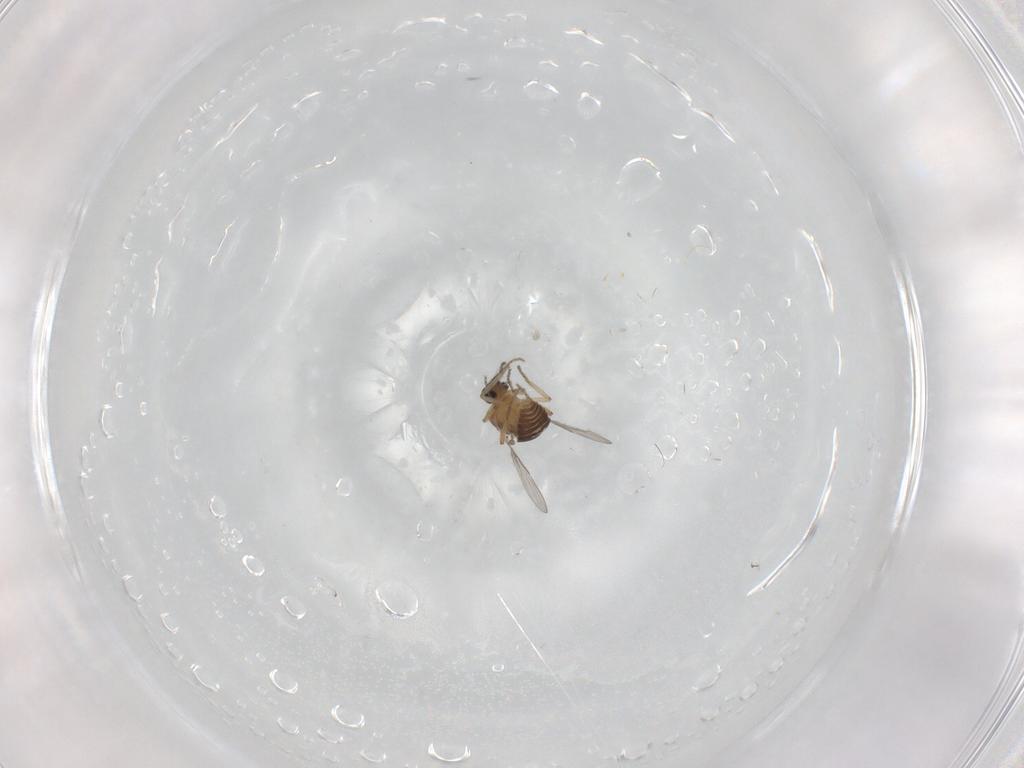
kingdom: Animalia
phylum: Arthropoda
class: Insecta
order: Diptera
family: Ceratopogonidae
